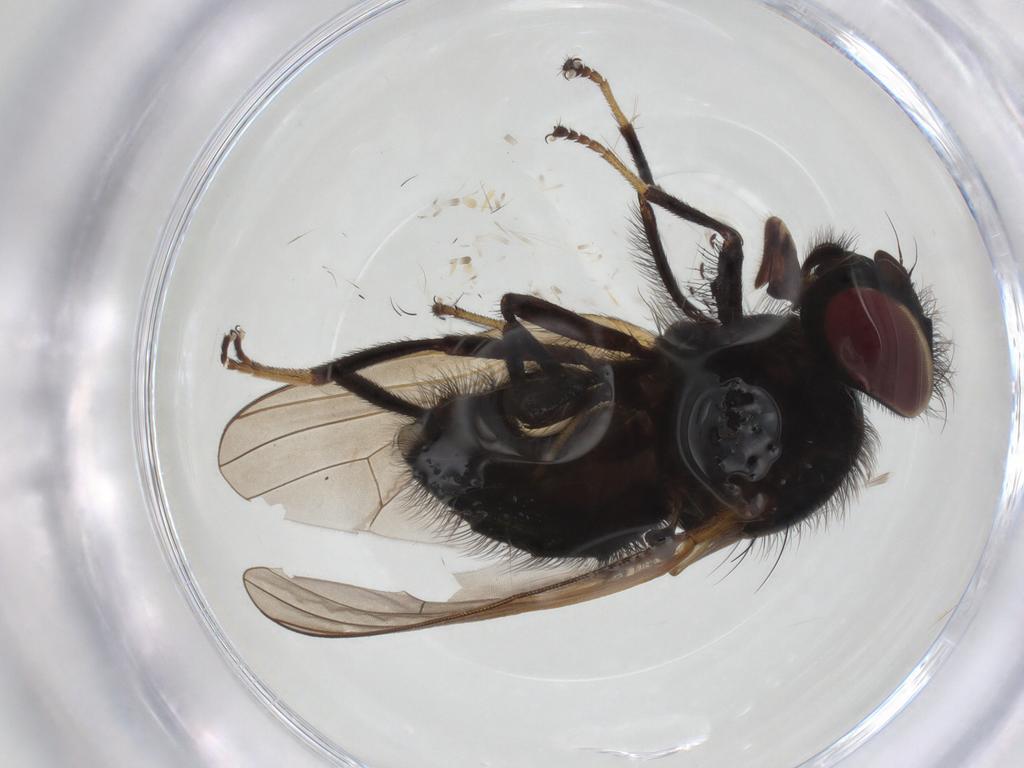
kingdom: Animalia
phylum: Arthropoda
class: Insecta
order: Diptera
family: Lonchaeidae
